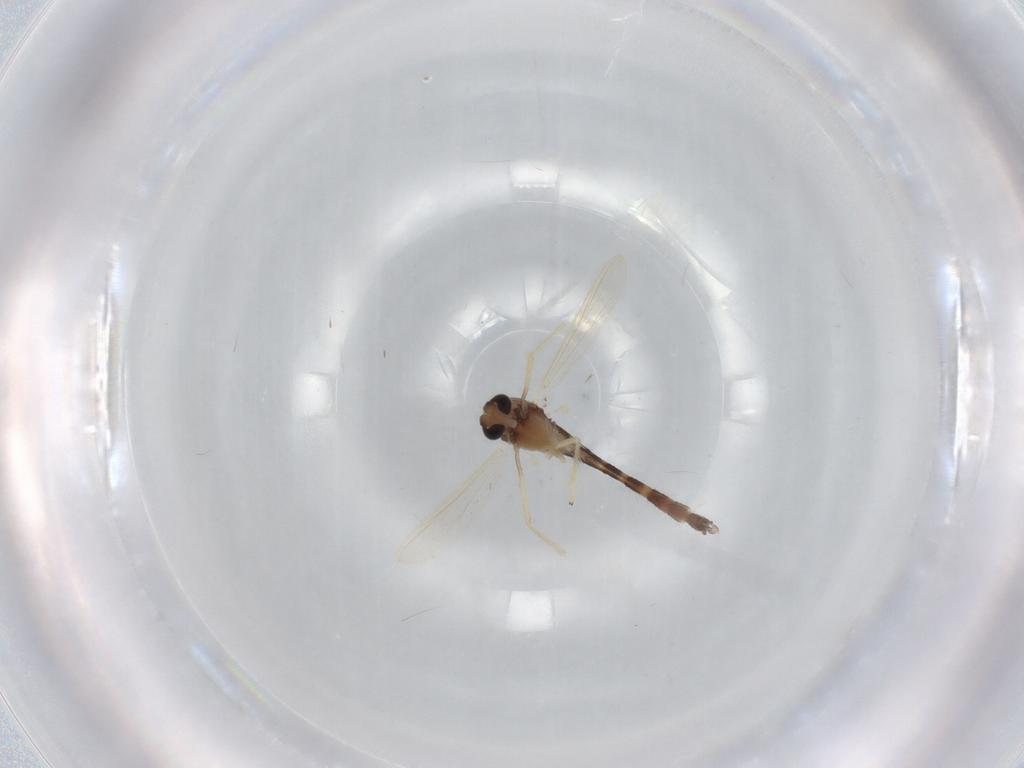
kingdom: Animalia
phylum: Arthropoda
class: Insecta
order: Diptera
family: Chironomidae
